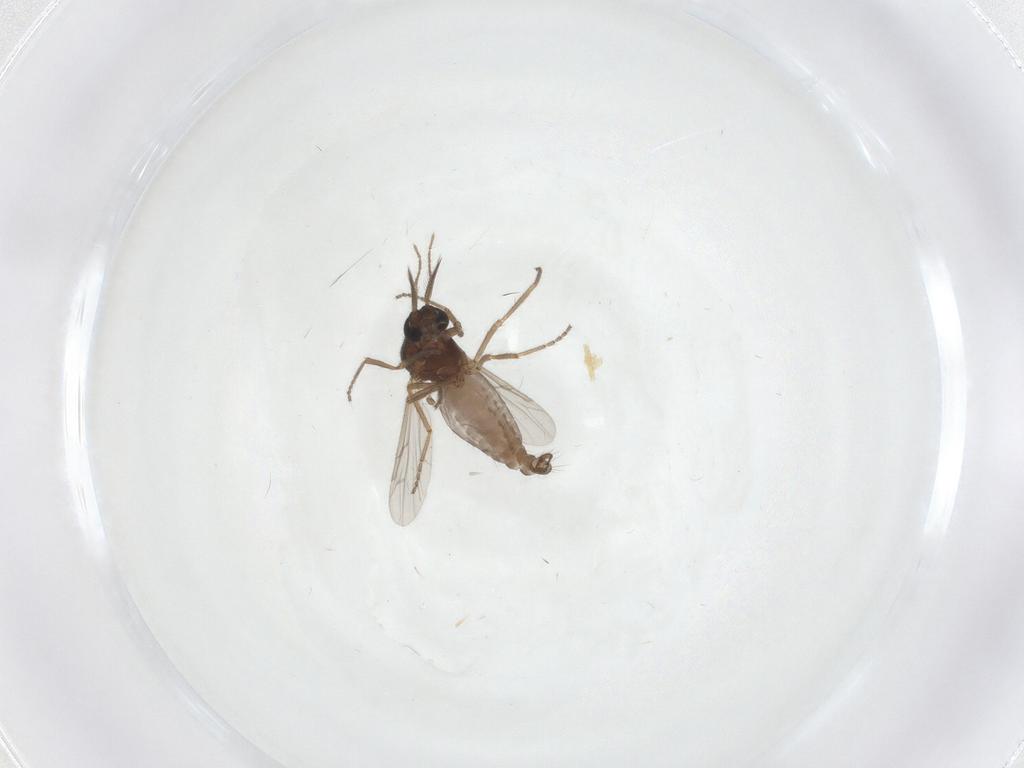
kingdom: Animalia
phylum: Arthropoda
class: Insecta
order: Diptera
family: Ceratopogonidae
